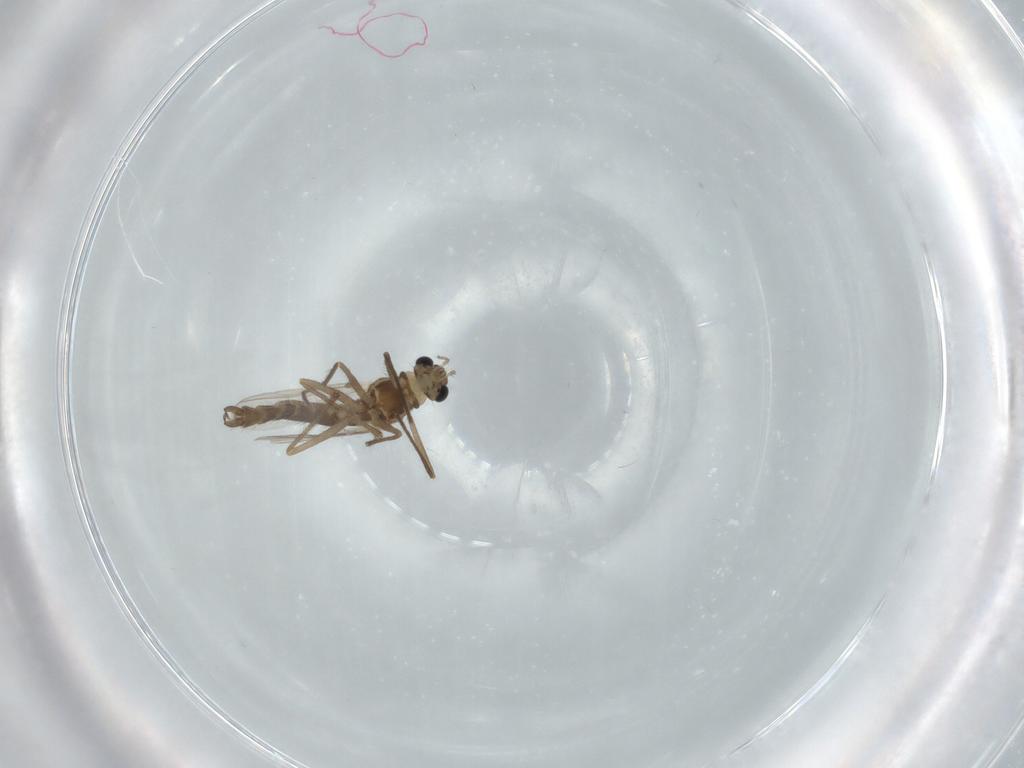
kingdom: Animalia
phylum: Arthropoda
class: Insecta
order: Diptera
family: Chironomidae
